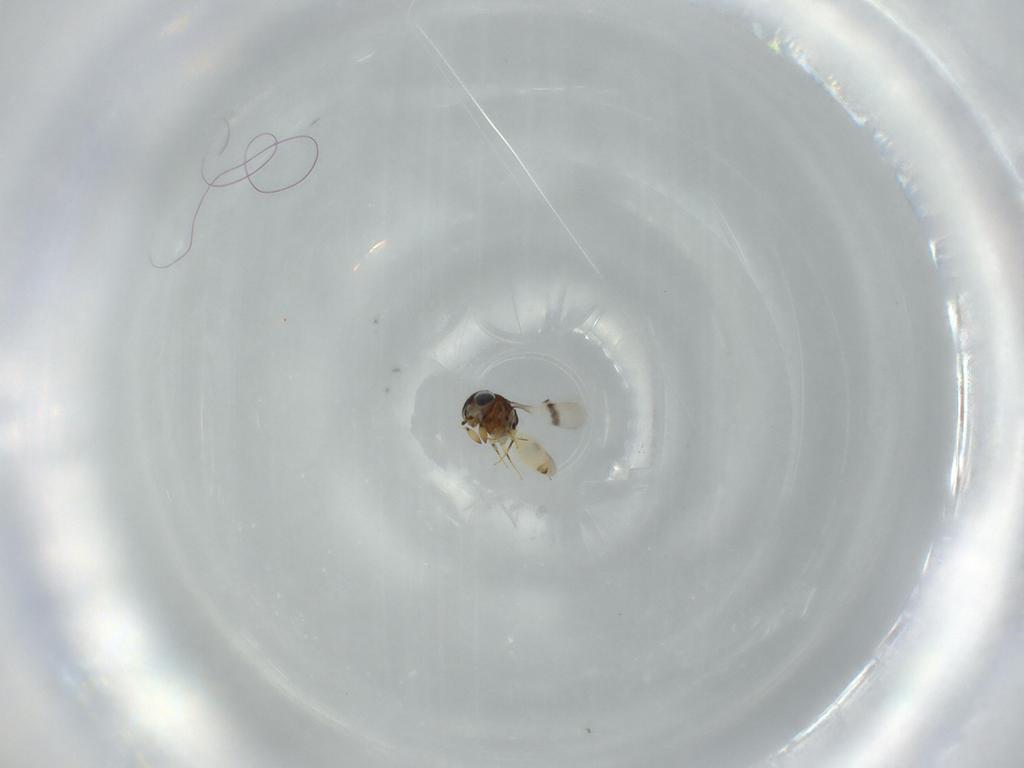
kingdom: Animalia
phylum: Arthropoda
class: Insecta
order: Hymenoptera
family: Scelionidae
